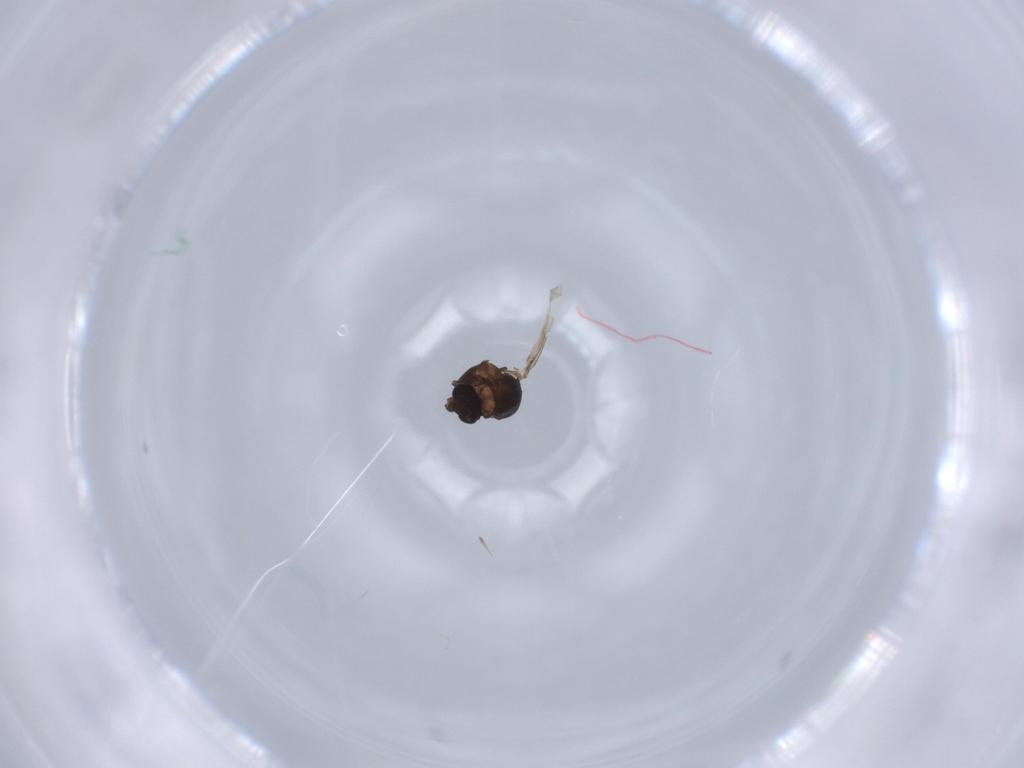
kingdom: Animalia
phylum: Arthropoda
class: Insecta
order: Diptera
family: Chironomidae
